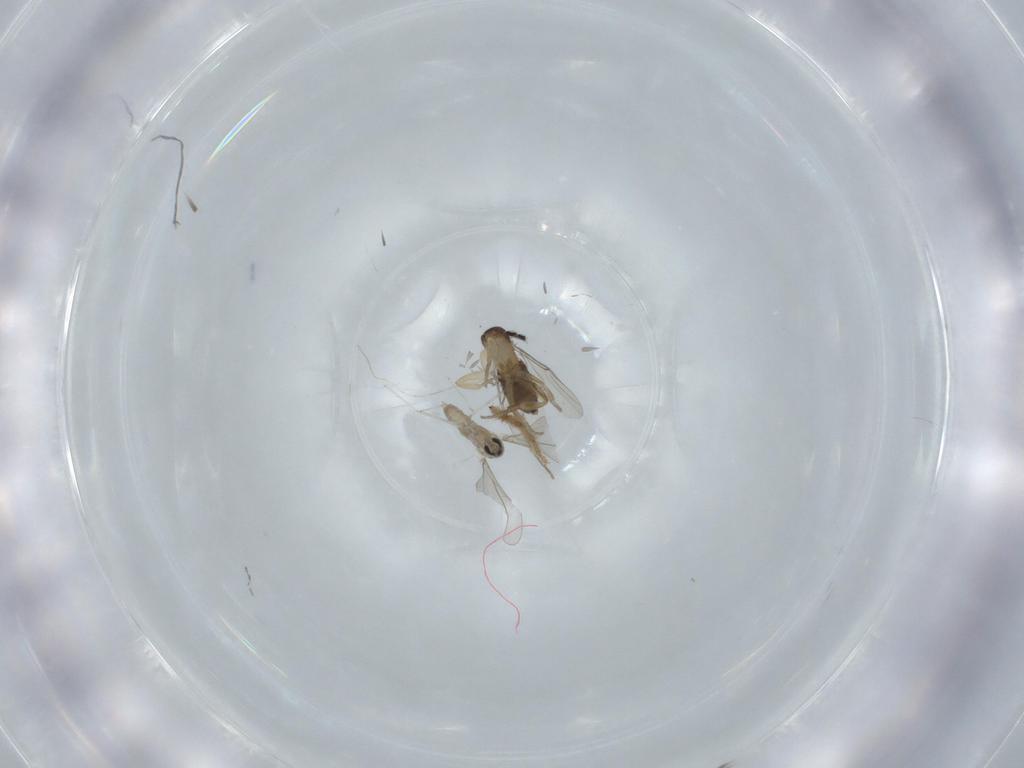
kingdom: Animalia
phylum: Arthropoda
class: Insecta
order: Diptera
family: Phoridae
